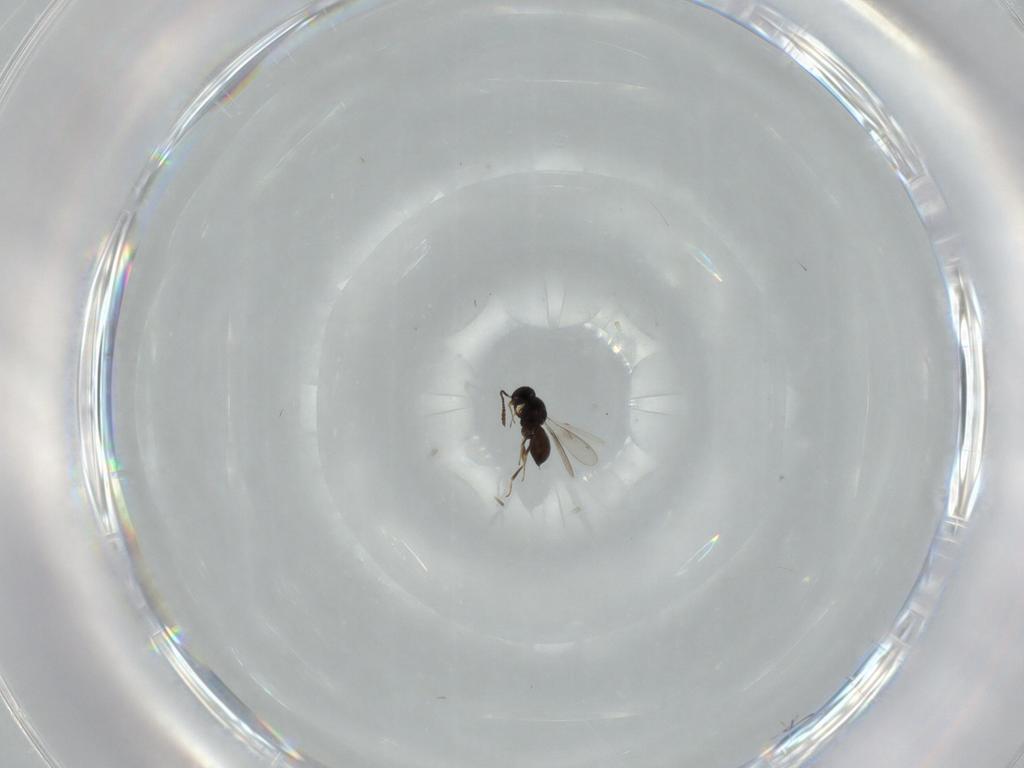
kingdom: Animalia
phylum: Arthropoda
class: Insecta
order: Hymenoptera
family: Scelionidae
